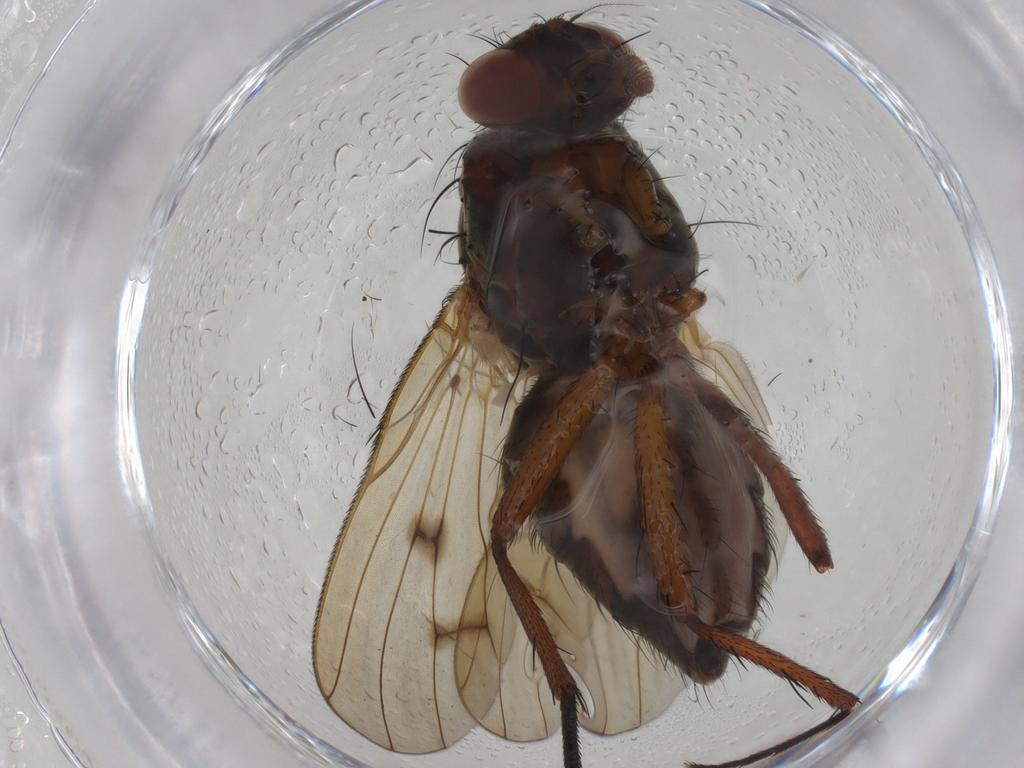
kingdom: Animalia
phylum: Arthropoda
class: Insecta
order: Diptera
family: Anthomyiidae
